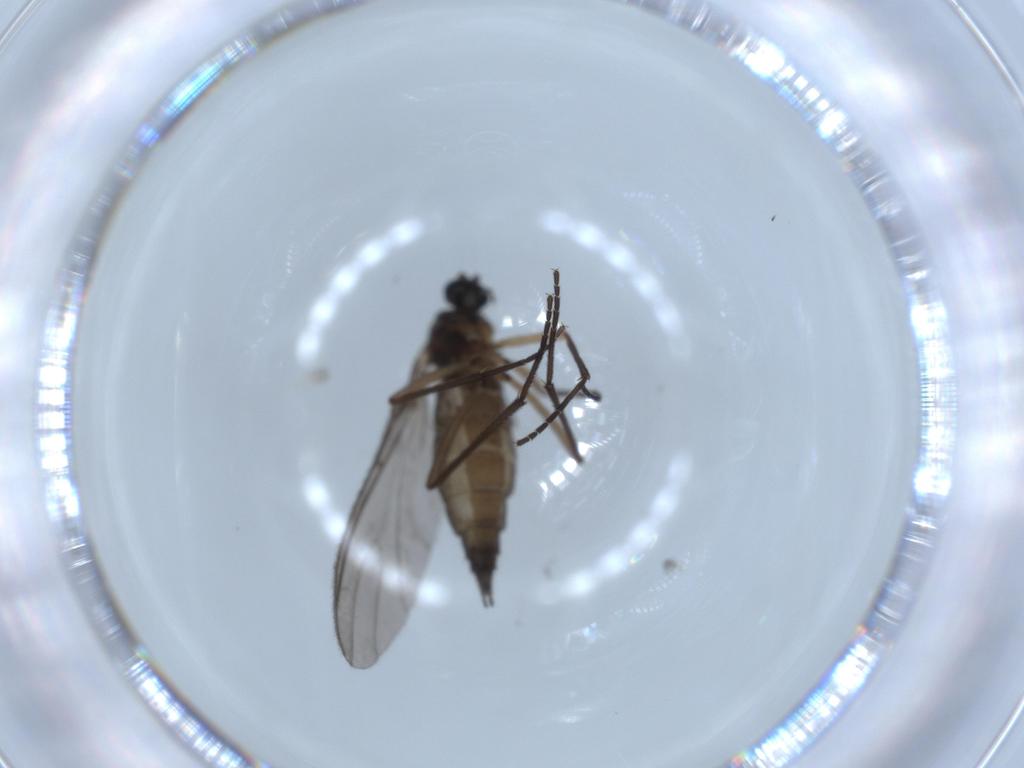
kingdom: Animalia
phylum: Arthropoda
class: Insecta
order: Diptera
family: Sciaridae
